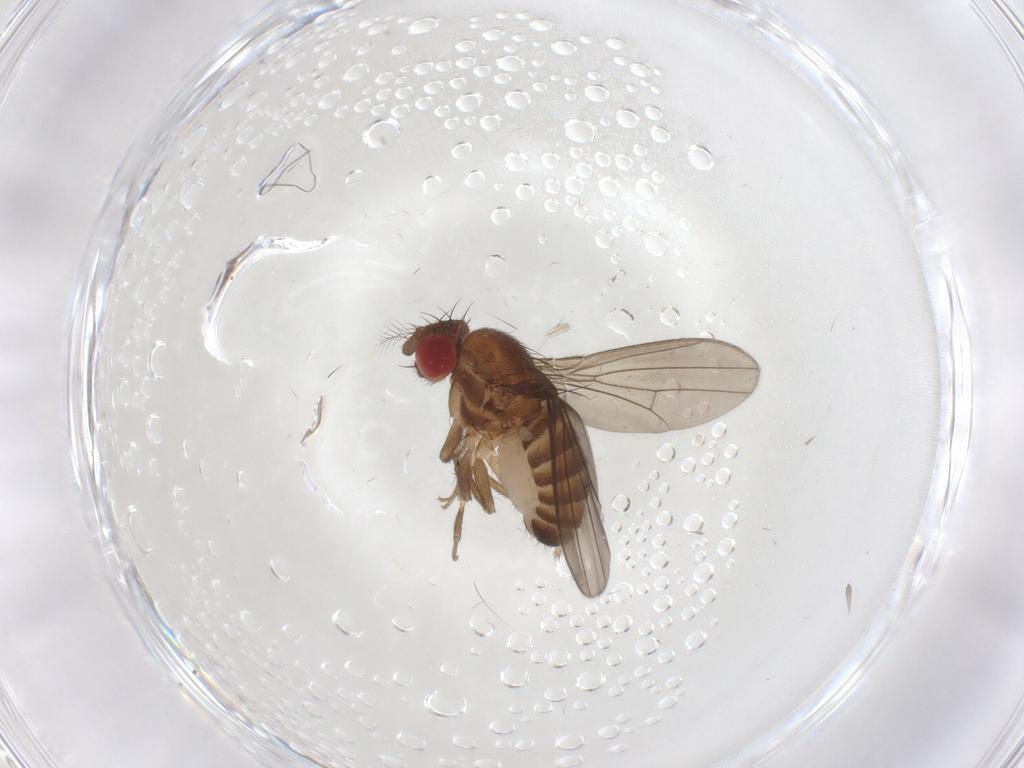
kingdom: Animalia
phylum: Arthropoda
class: Insecta
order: Diptera
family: Drosophilidae
